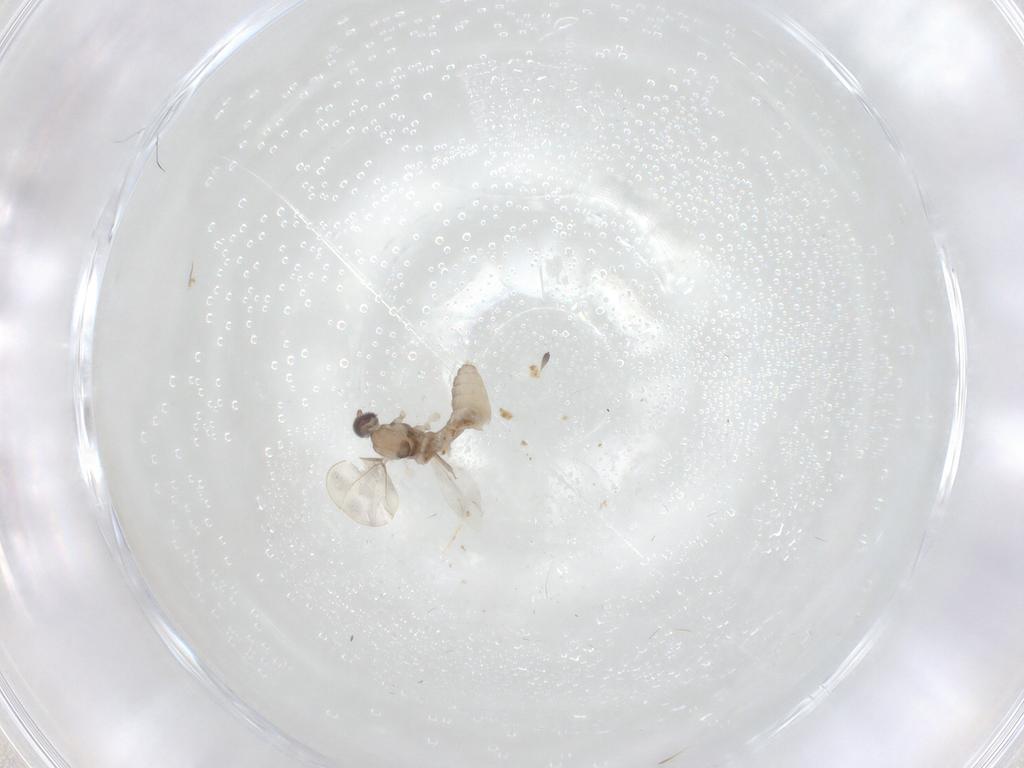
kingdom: Animalia
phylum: Arthropoda
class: Insecta
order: Diptera
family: Cecidomyiidae
